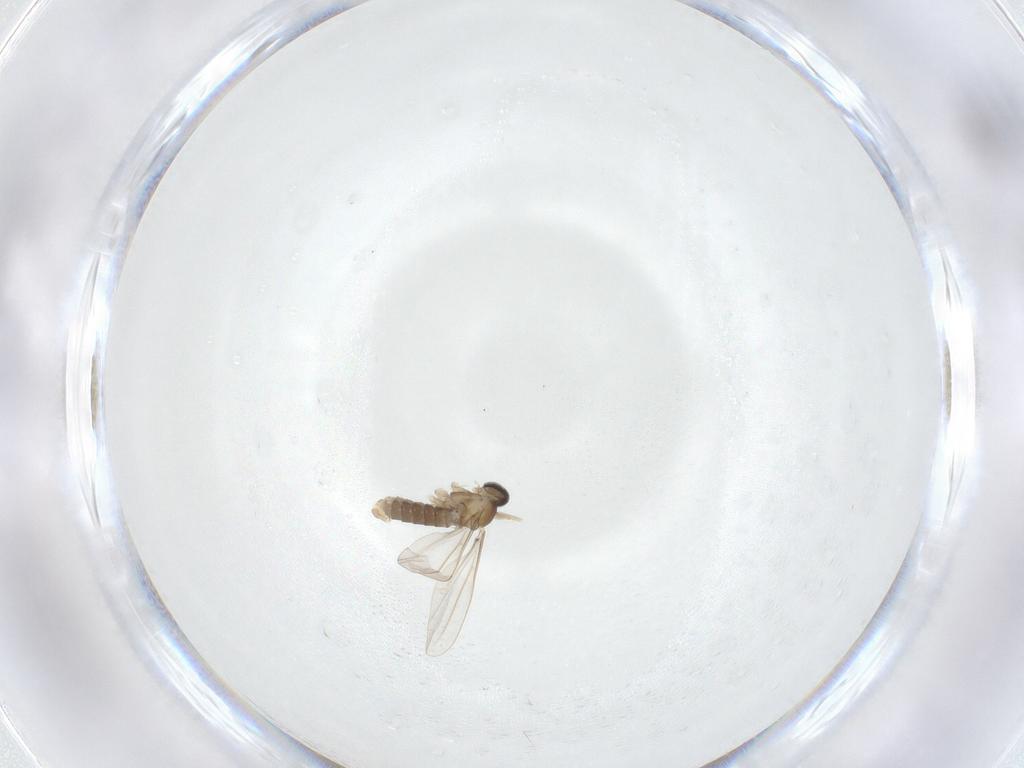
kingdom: Animalia
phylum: Arthropoda
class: Insecta
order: Diptera
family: Cecidomyiidae
